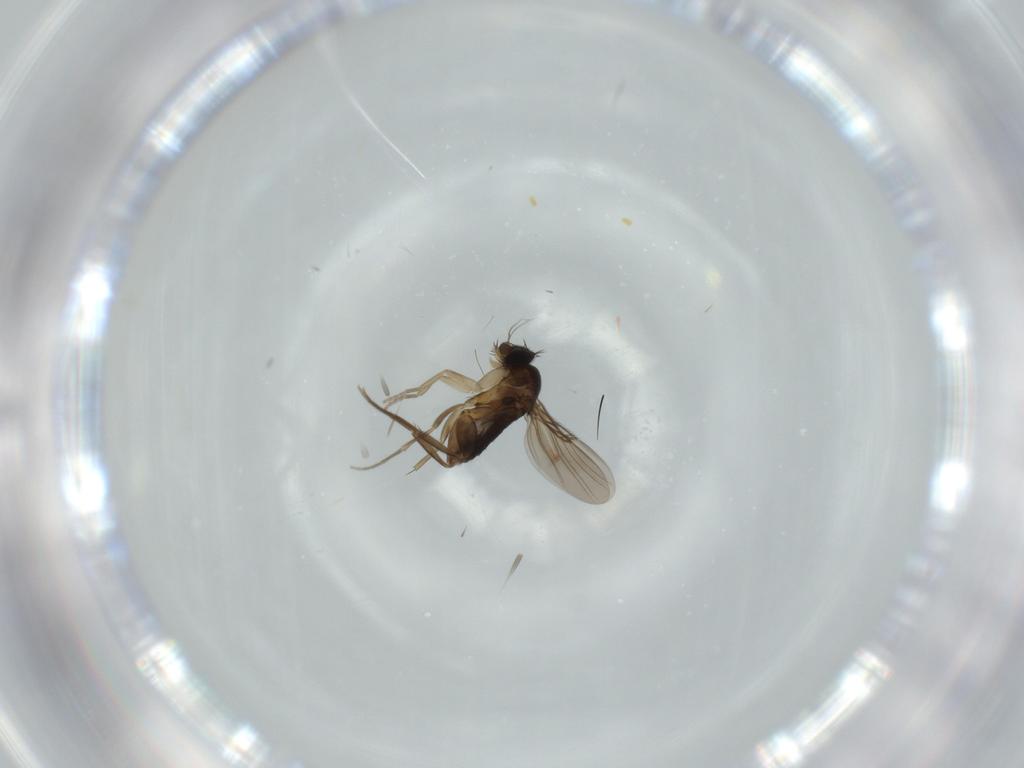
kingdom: Animalia
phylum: Arthropoda
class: Insecta
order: Diptera
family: Phoridae
